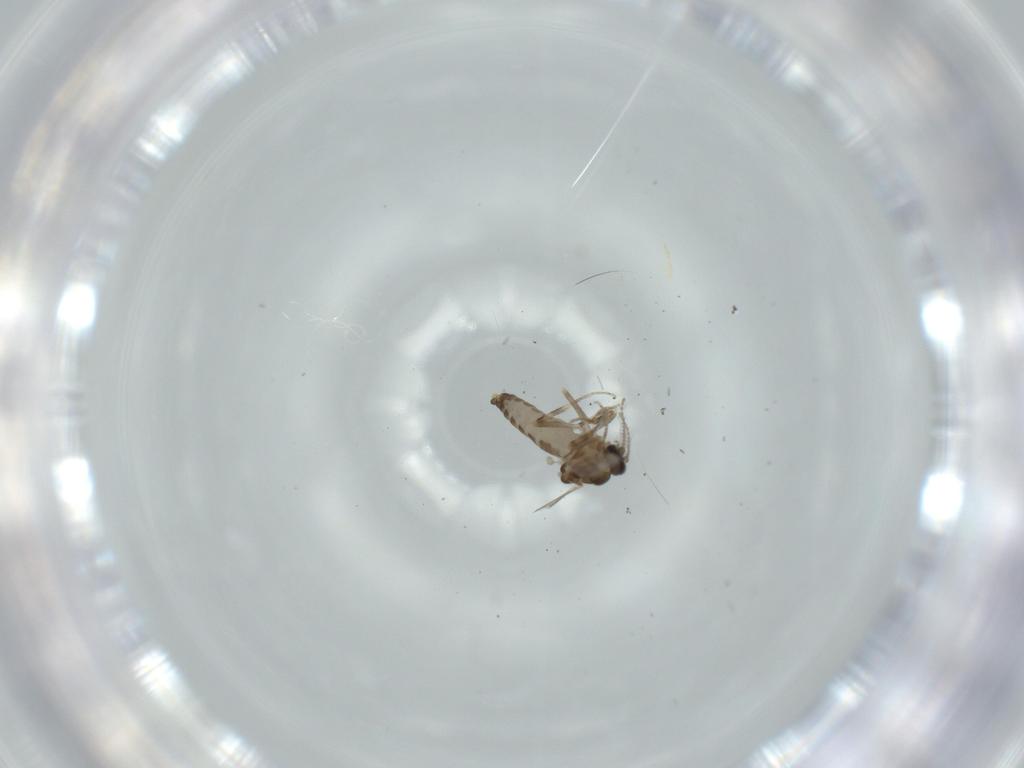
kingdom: Animalia
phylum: Arthropoda
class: Insecta
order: Diptera
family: Ceratopogonidae
